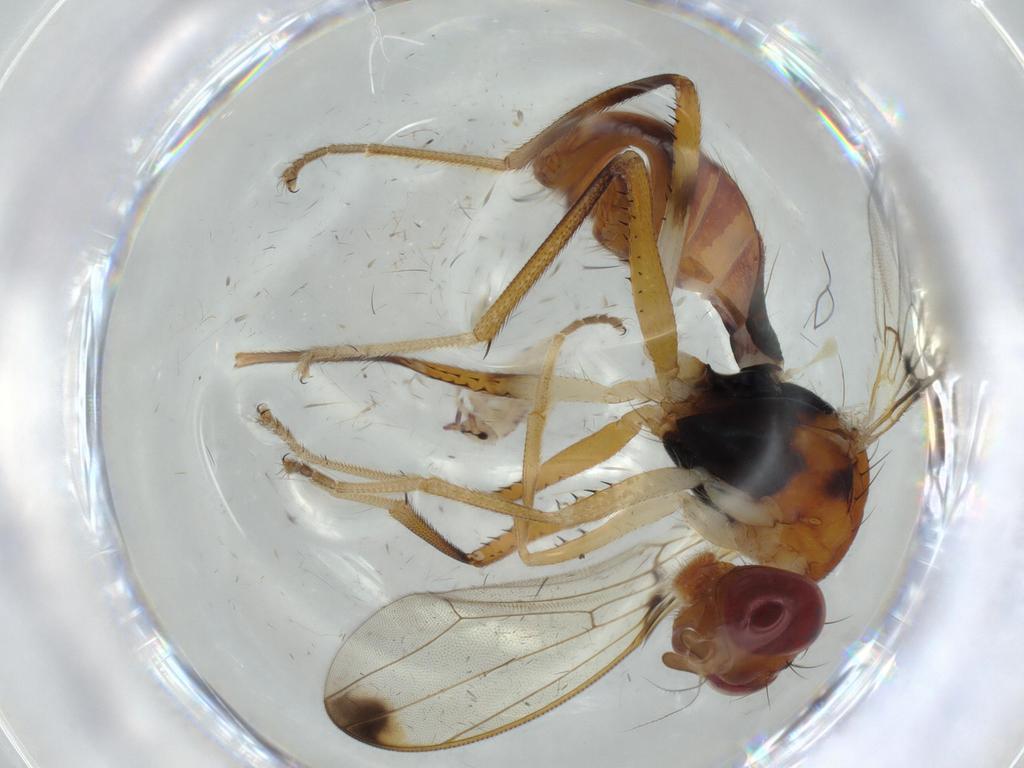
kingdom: Animalia
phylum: Arthropoda
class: Insecta
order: Diptera
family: Richardiidae
